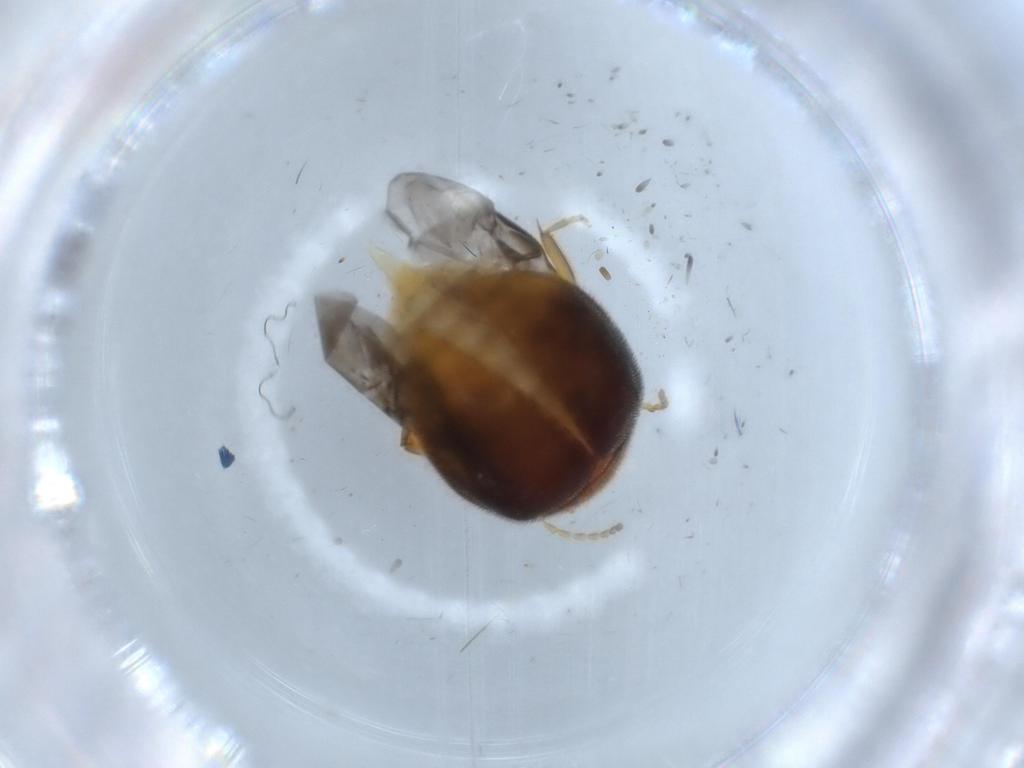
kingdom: Animalia
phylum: Arthropoda
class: Insecta
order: Coleoptera
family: Scirtidae
